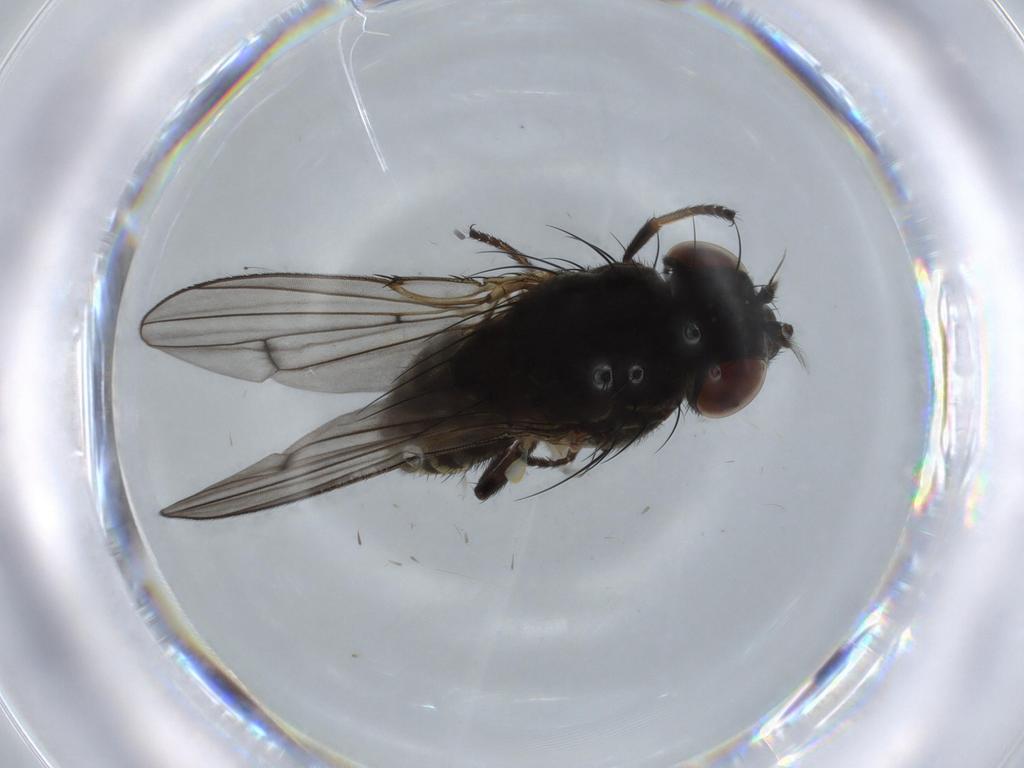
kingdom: Animalia
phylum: Arthropoda
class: Insecta
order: Diptera
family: Ephydridae
